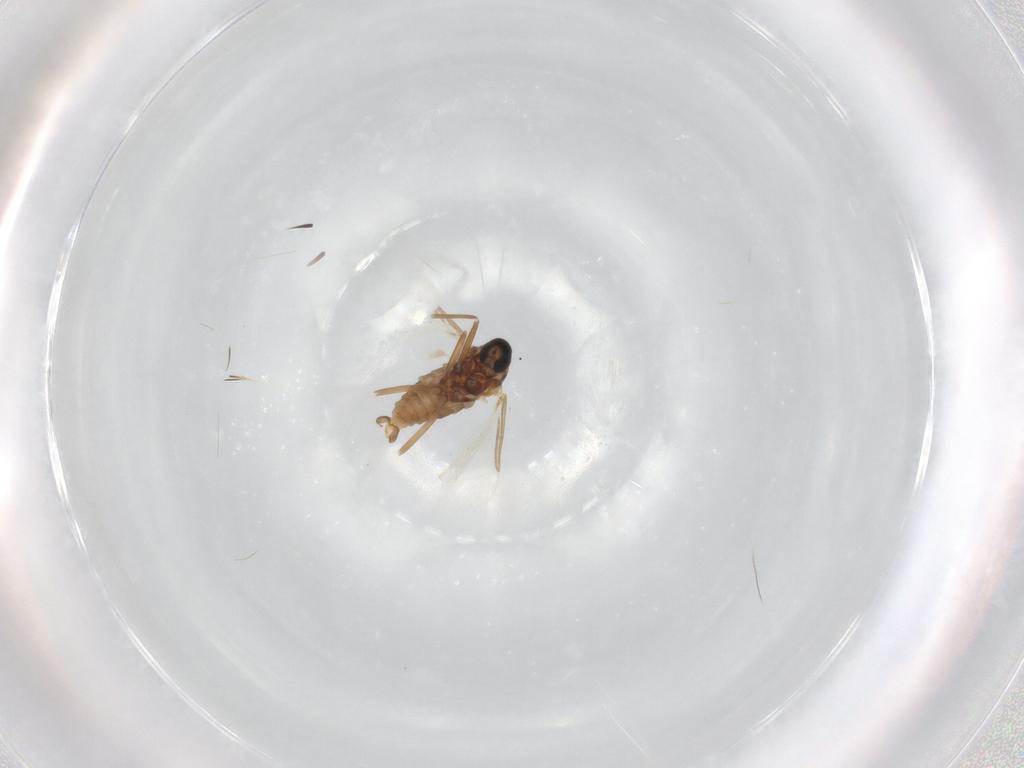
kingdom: Animalia
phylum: Arthropoda
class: Insecta
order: Diptera
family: Cecidomyiidae
